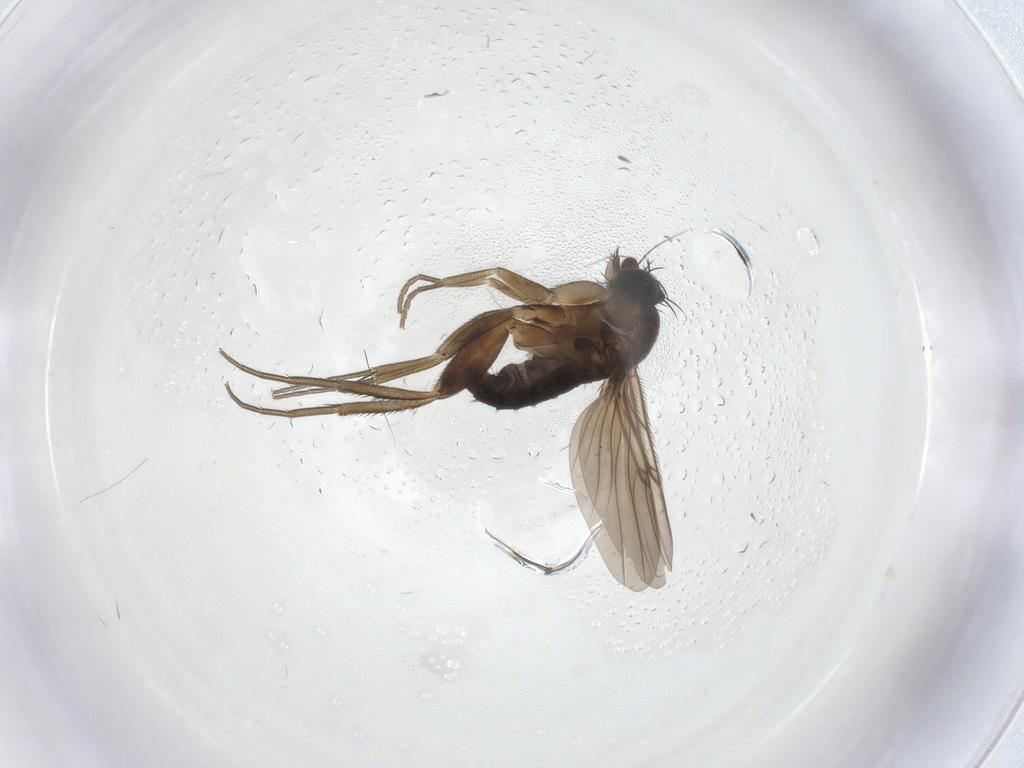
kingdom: Animalia
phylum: Arthropoda
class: Insecta
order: Diptera
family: Phoridae
